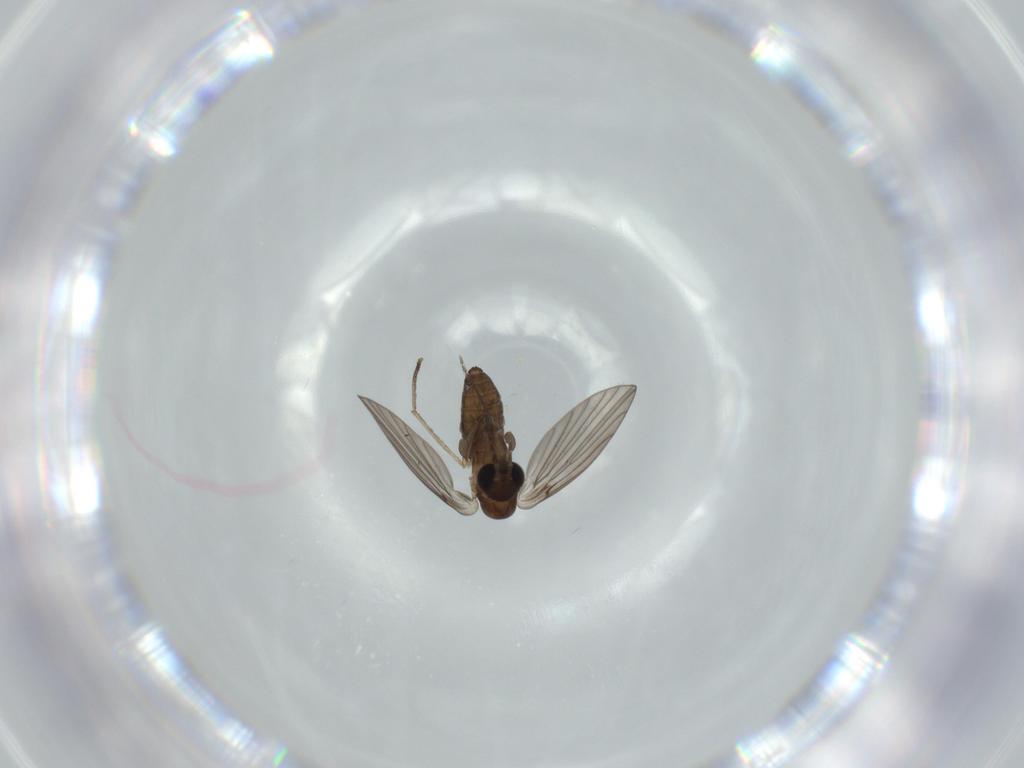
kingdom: Animalia
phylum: Arthropoda
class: Insecta
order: Diptera
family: Psychodidae
